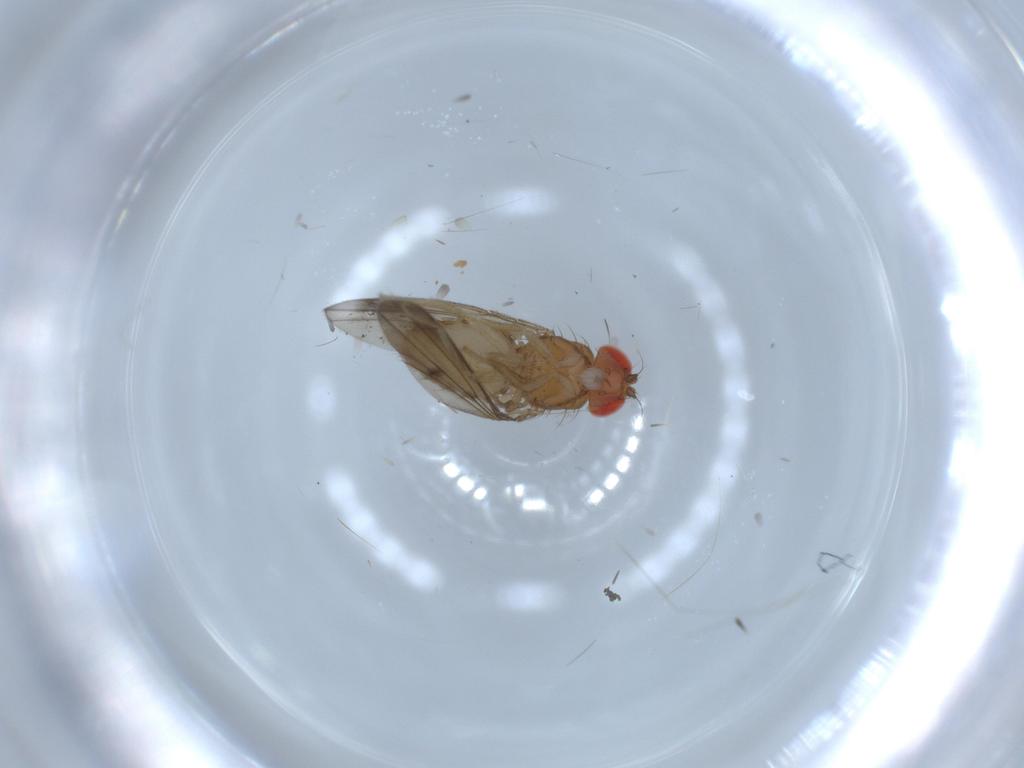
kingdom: Animalia
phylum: Arthropoda
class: Insecta
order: Diptera
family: Drosophilidae
